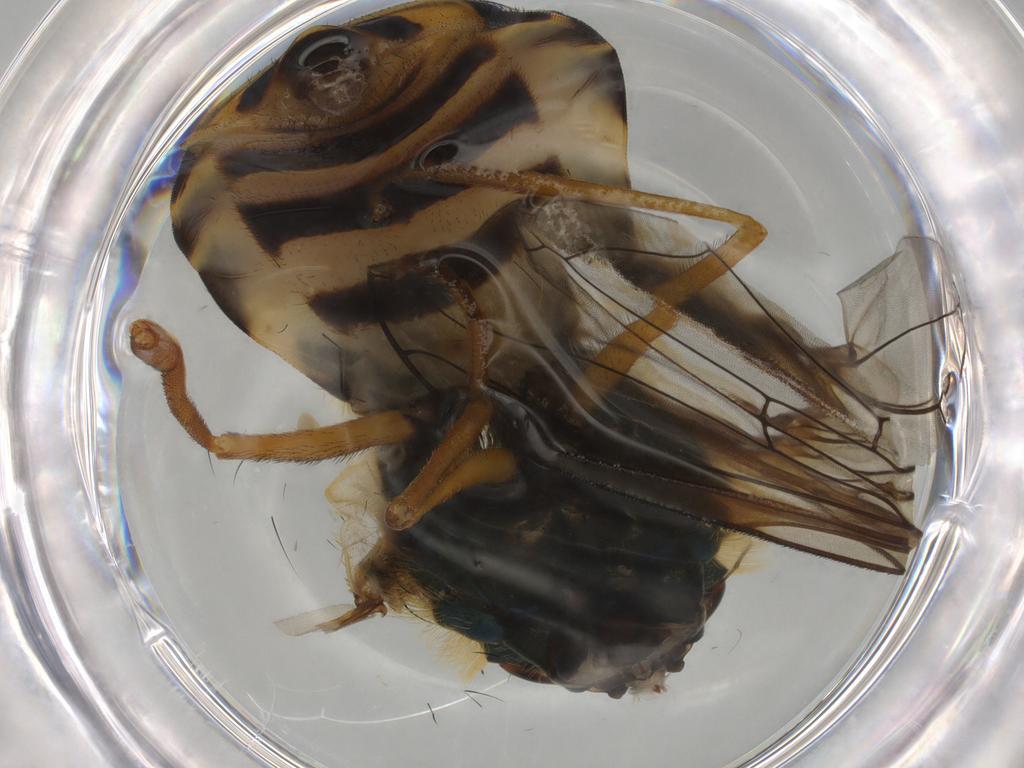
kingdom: Animalia
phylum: Arthropoda
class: Insecta
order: Diptera
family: Syrphidae
